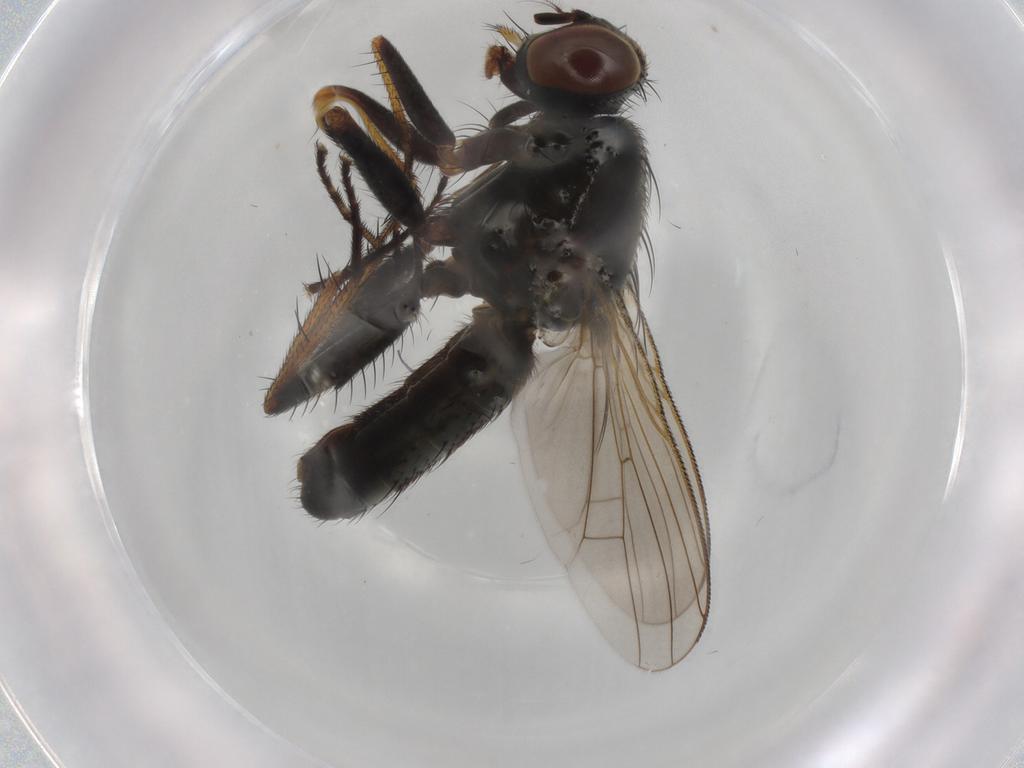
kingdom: Animalia
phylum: Arthropoda
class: Insecta
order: Diptera
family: Muscidae
